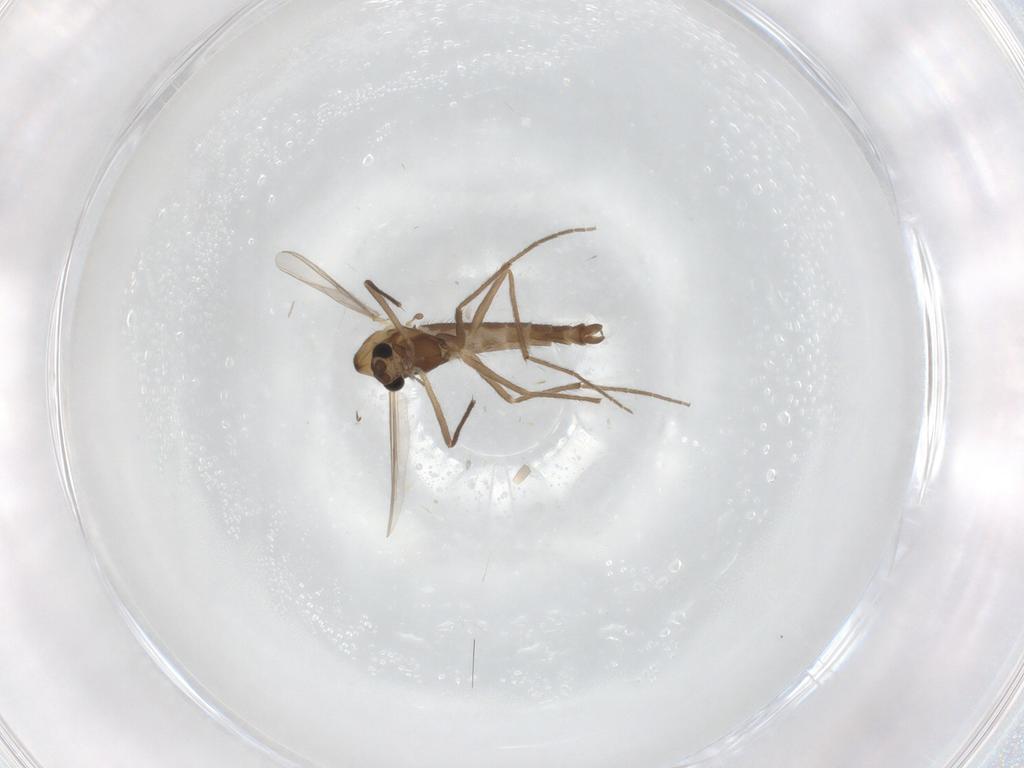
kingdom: Animalia
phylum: Arthropoda
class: Insecta
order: Diptera
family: Chironomidae
